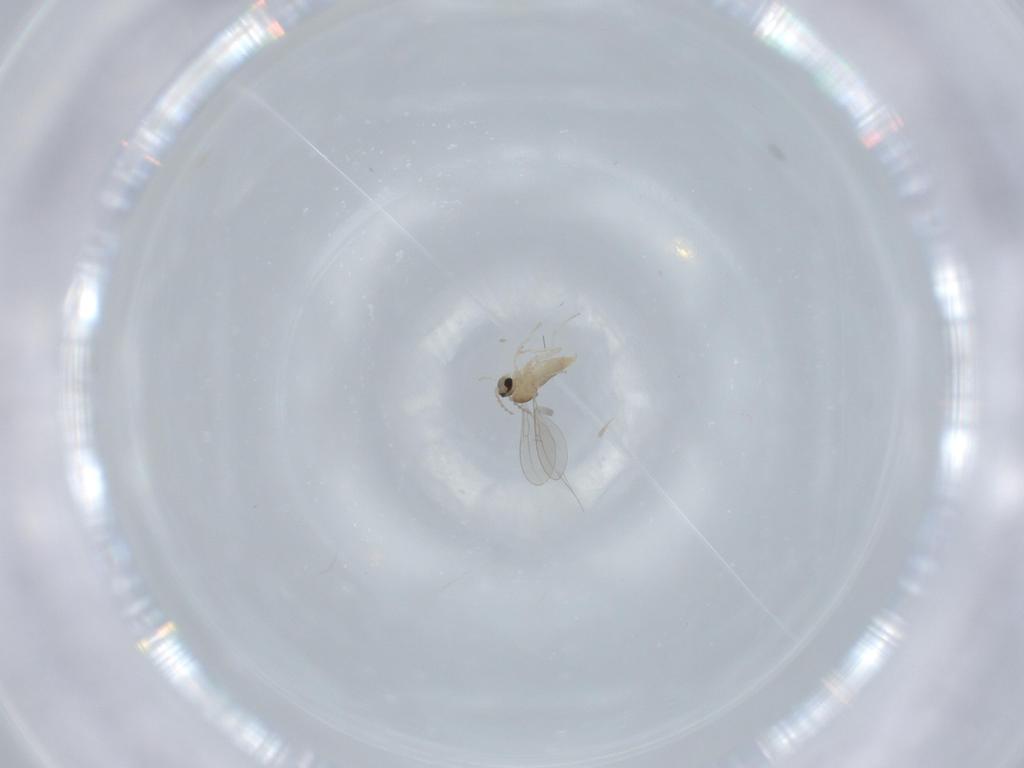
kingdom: Animalia
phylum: Arthropoda
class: Insecta
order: Diptera
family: Cecidomyiidae
